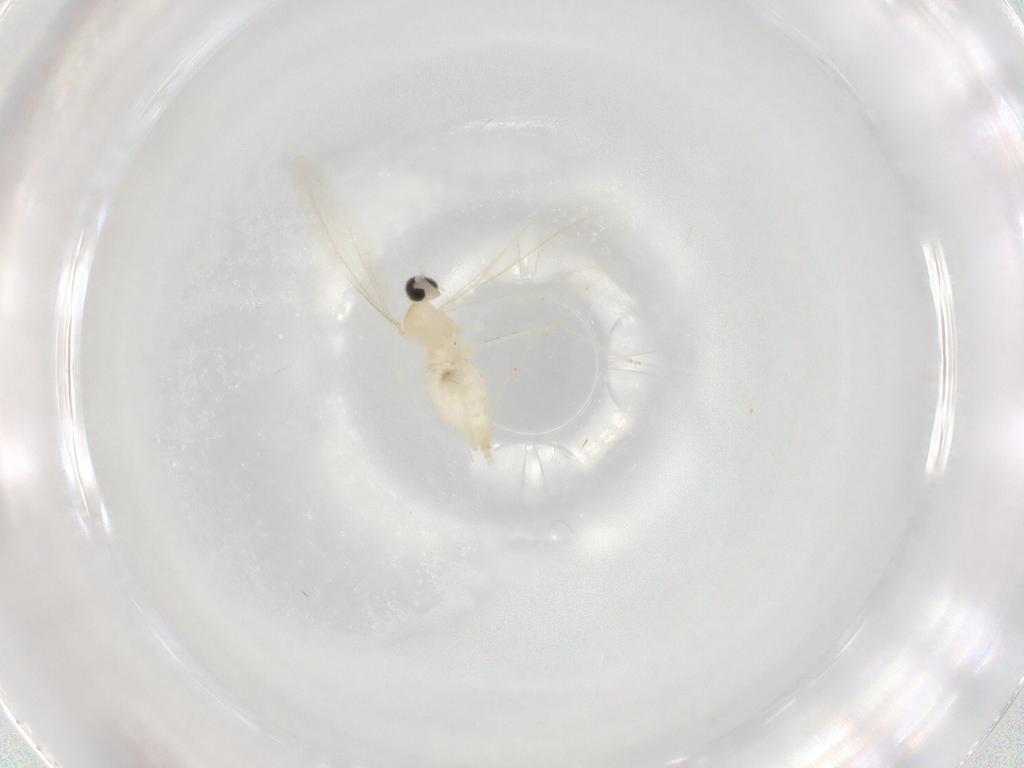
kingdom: Animalia
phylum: Arthropoda
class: Insecta
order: Diptera
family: Cecidomyiidae
